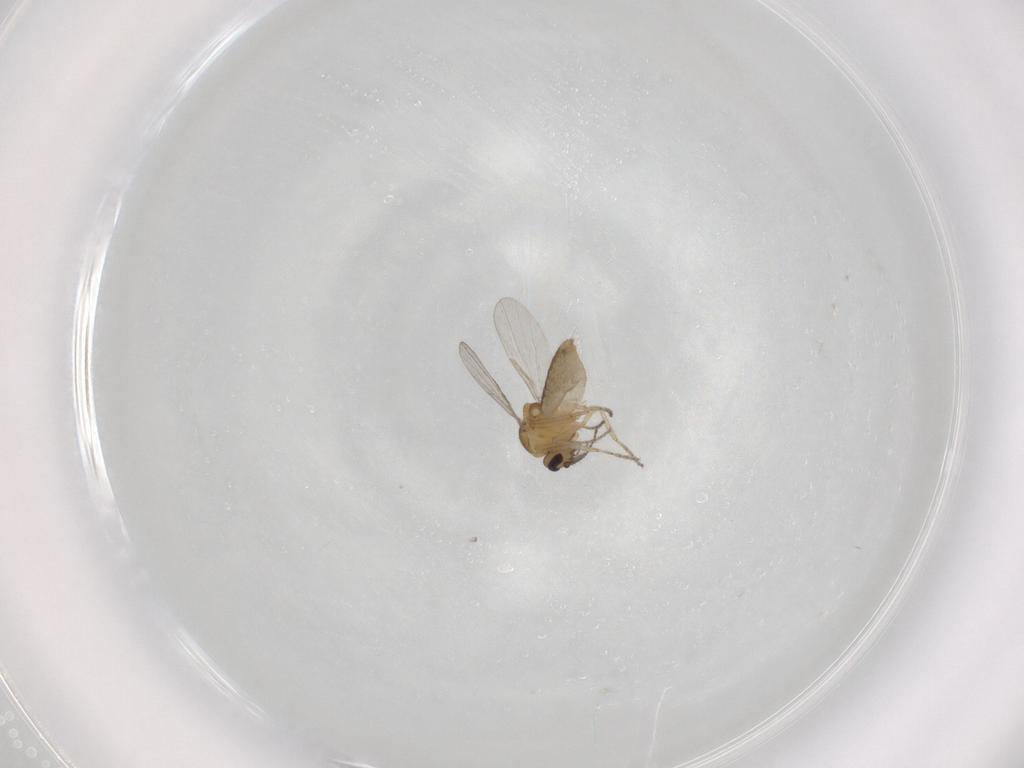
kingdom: Animalia
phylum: Arthropoda
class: Insecta
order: Diptera
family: Ceratopogonidae
